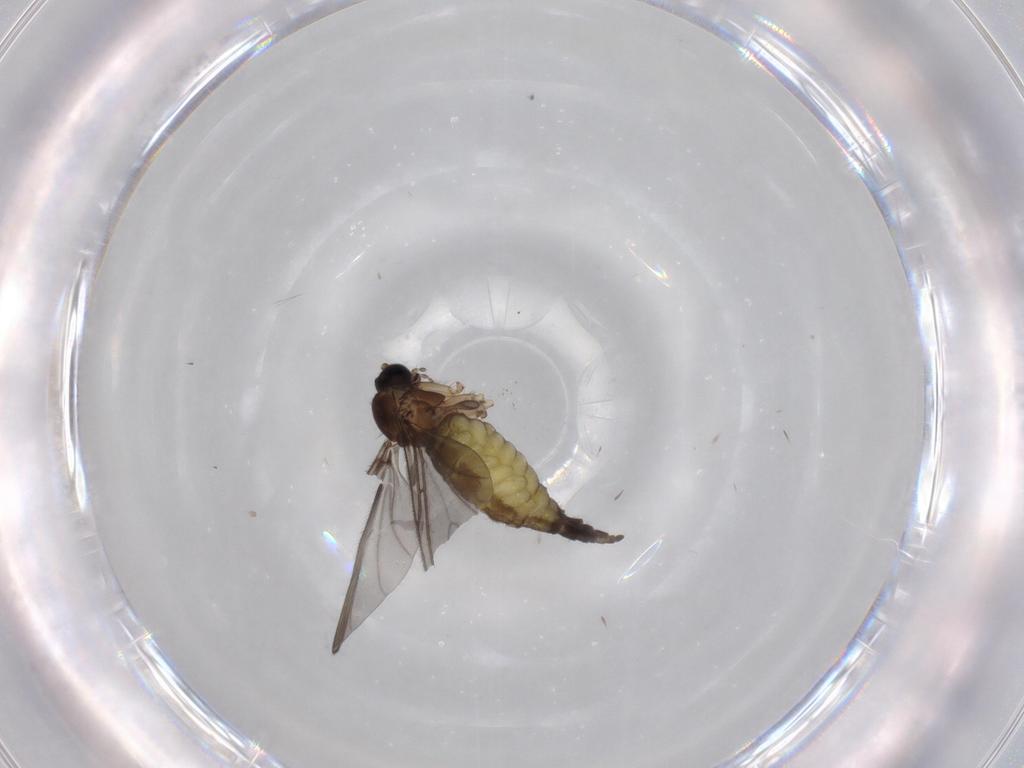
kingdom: Animalia
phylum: Arthropoda
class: Insecta
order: Diptera
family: Sciaridae
